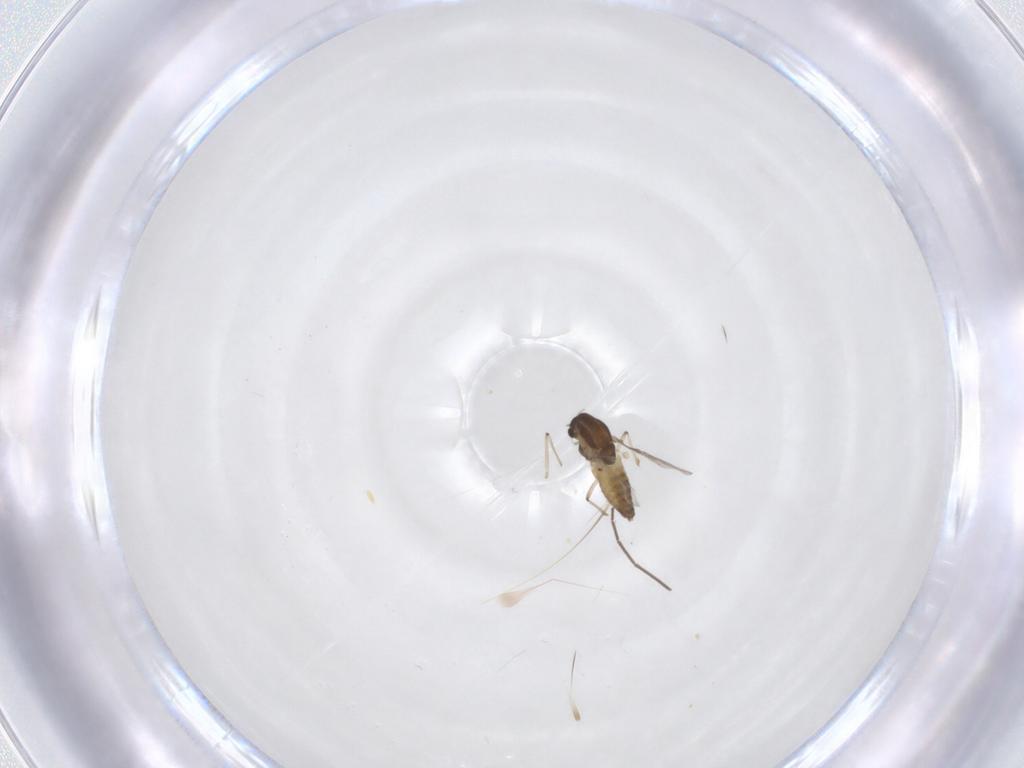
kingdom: Animalia
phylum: Arthropoda
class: Insecta
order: Diptera
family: Chironomidae
